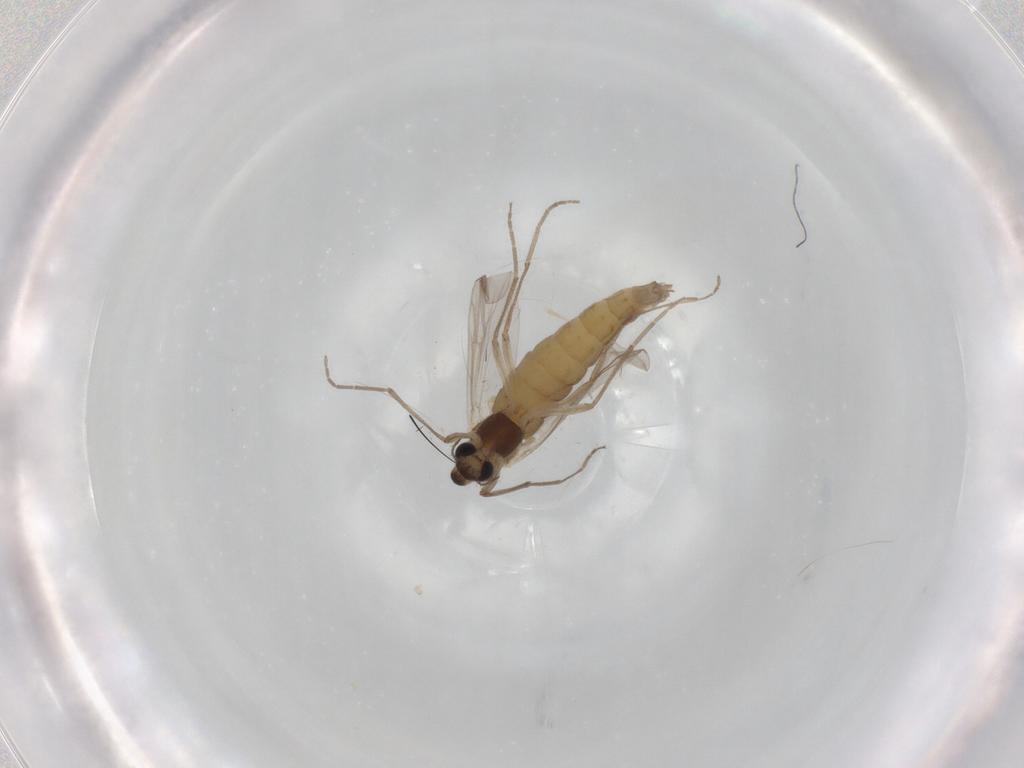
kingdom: Animalia
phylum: Arthropoda
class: Insecta
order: Diptera
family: Chironomidae
